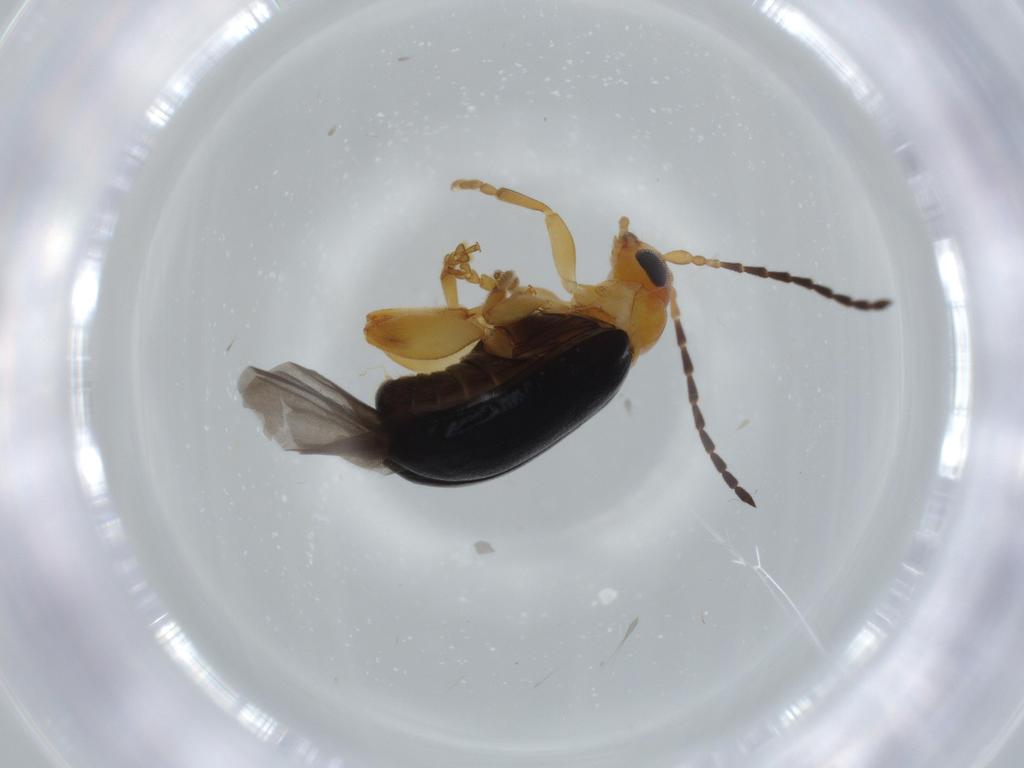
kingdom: Animalia
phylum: Arthropoda
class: Insecta
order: Coleoptera
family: Chrysomelidae
